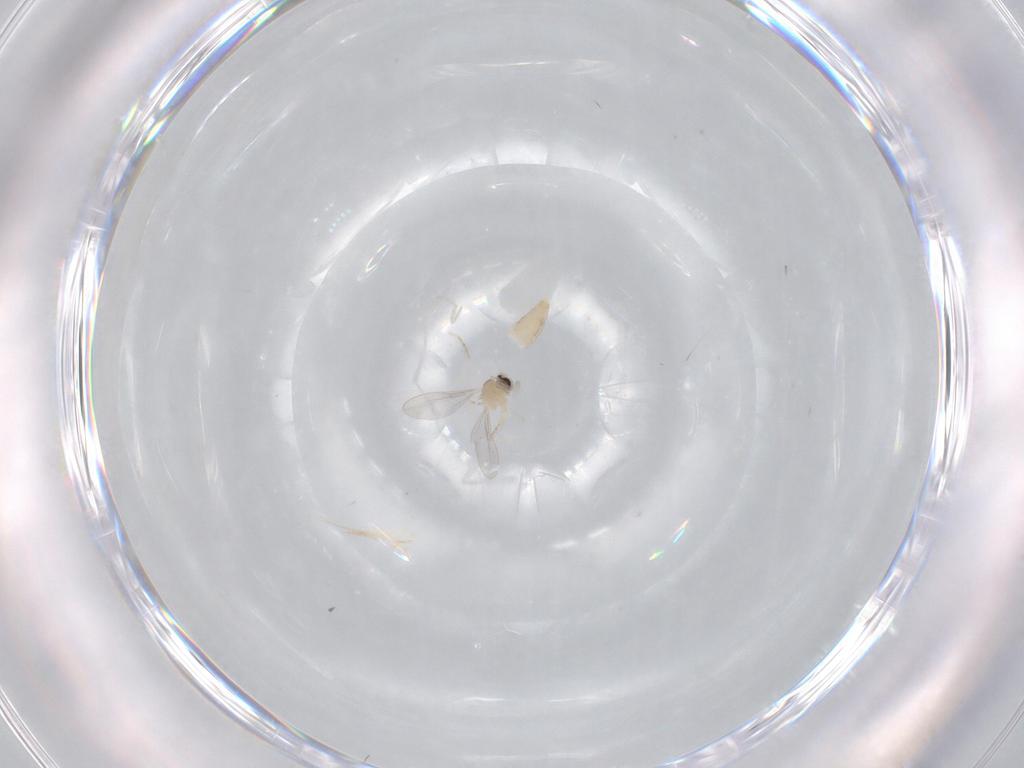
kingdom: Animalia
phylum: Arthropoda
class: Insecta
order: Diptera
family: Cecidomyiidae
